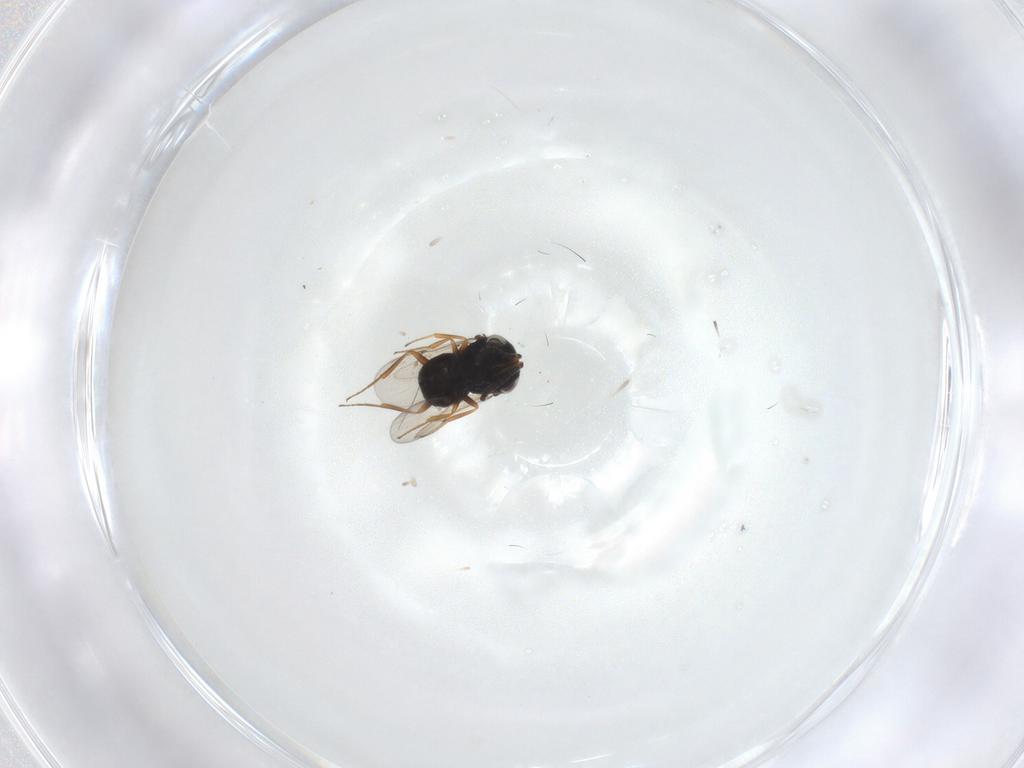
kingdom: Animalia
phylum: Arthropoda
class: Insecta
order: Hymenoptera
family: Scelionidae
